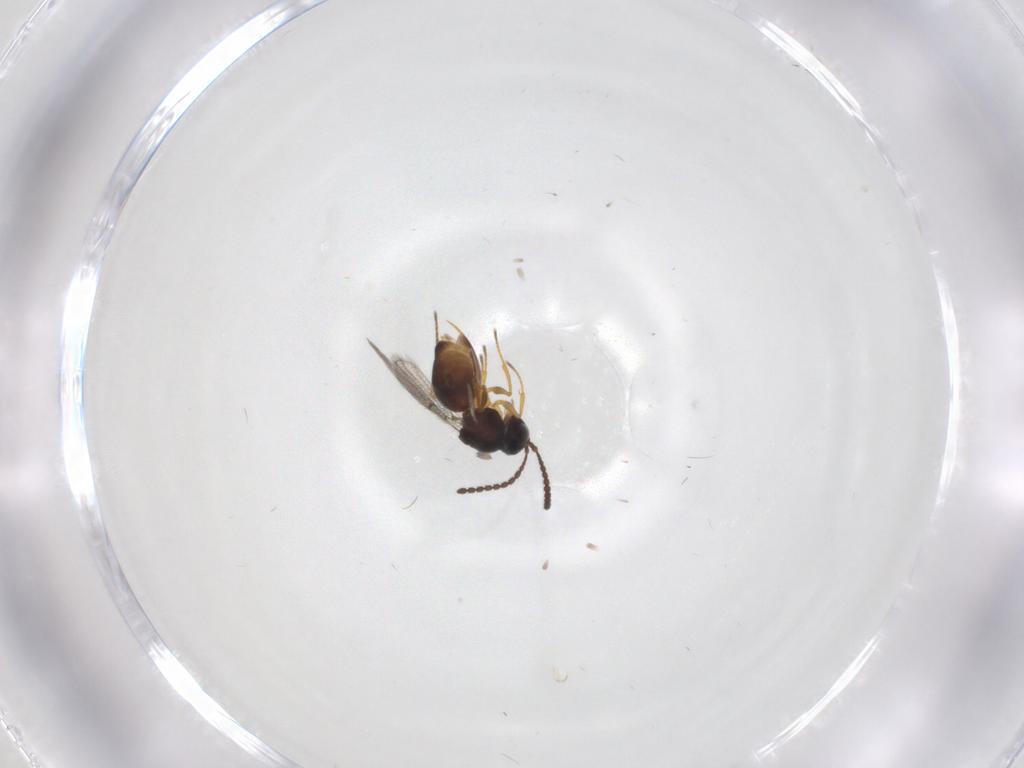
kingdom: Animalia
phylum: Arthropoda
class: Insecta
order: Hymenoptera
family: Figitidae
